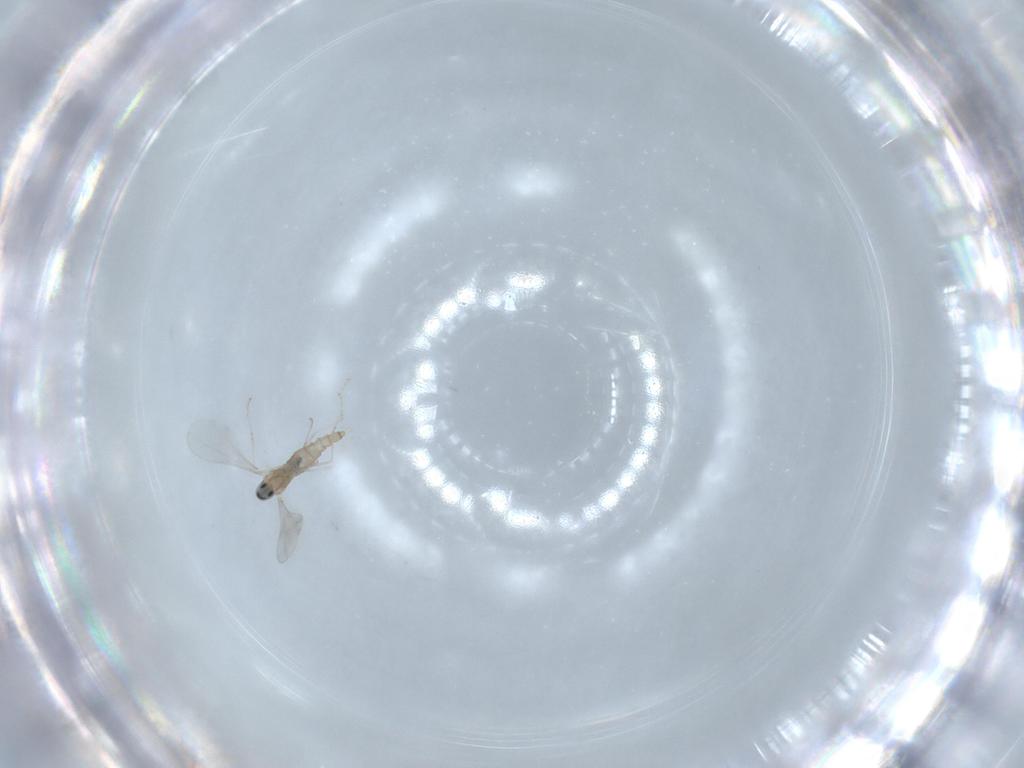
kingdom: Animalia
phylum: Arthropoda
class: Insecta
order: Diptera
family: Cecidomyiidae
